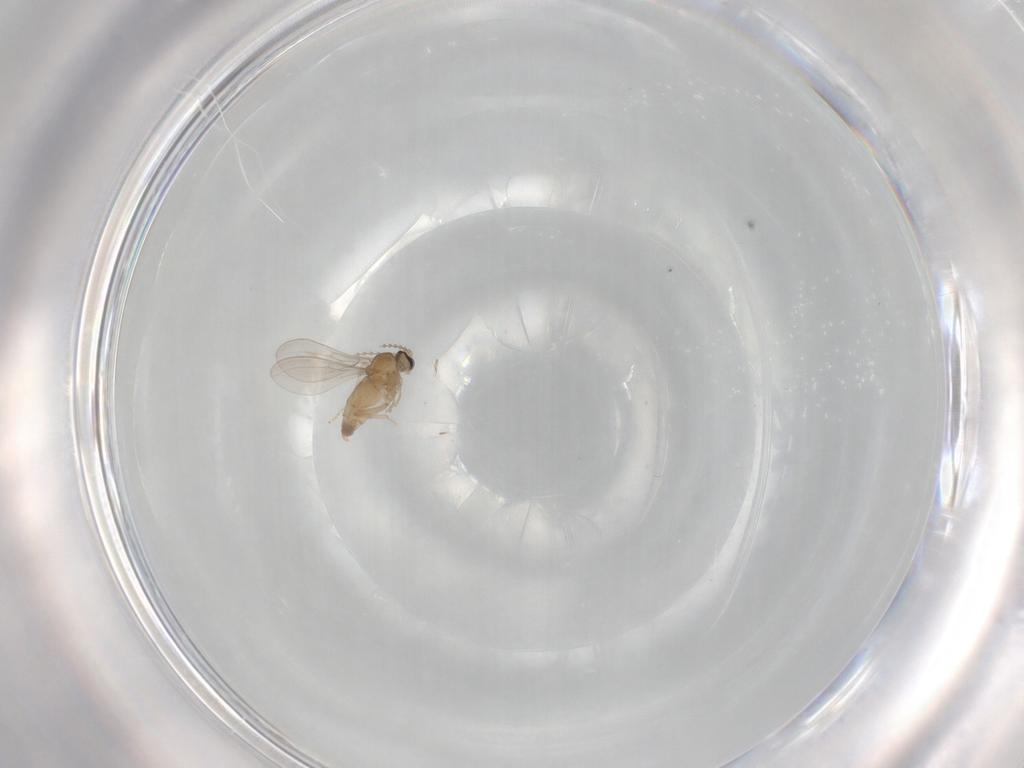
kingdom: Animalia
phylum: Arthropoda
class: Insecta
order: Diptera
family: Cecidomyiidae
